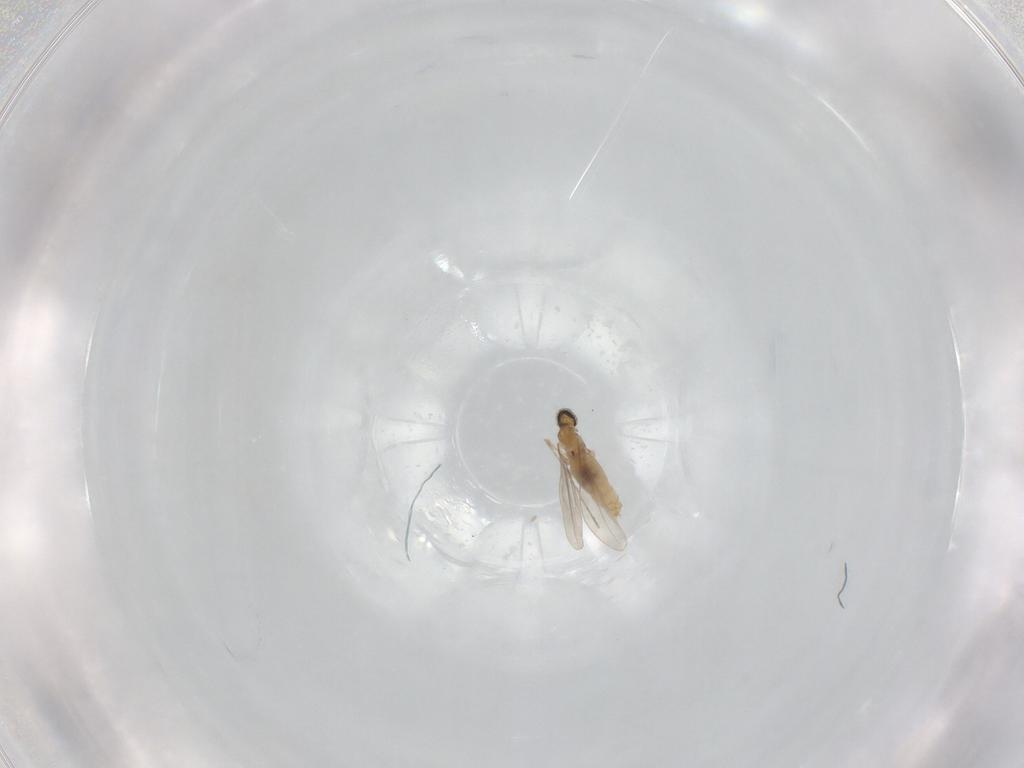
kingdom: Animalia
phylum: Arthropoda
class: Insecta
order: Diptera
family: Cecidomyiidae
